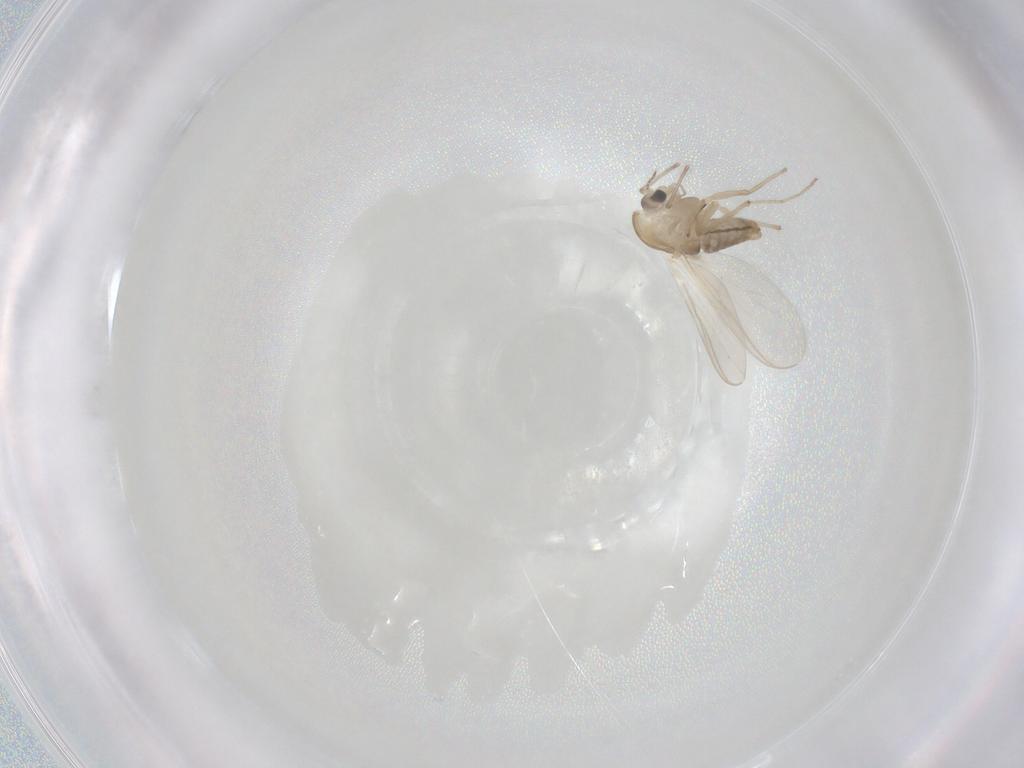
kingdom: Animalia
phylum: Arthropoda
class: Insecta
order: Diptera
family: Chironomidae
